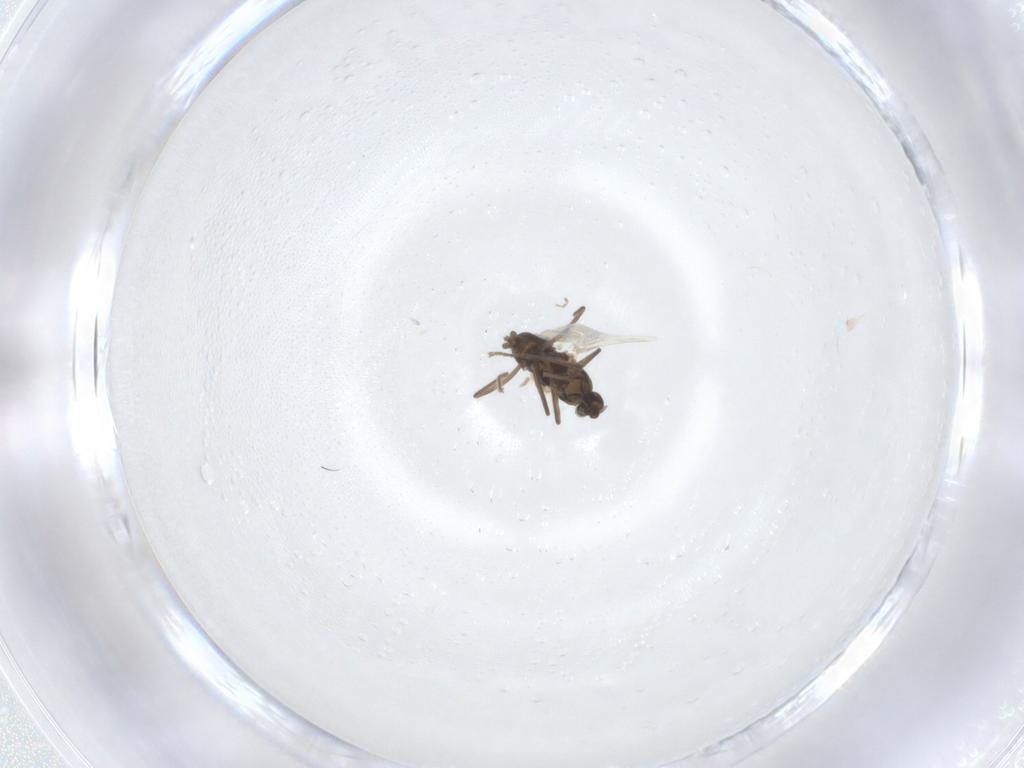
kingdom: Animalia
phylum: Arthropoda
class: Insecta
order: Diptera
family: Cecidomyiidae
